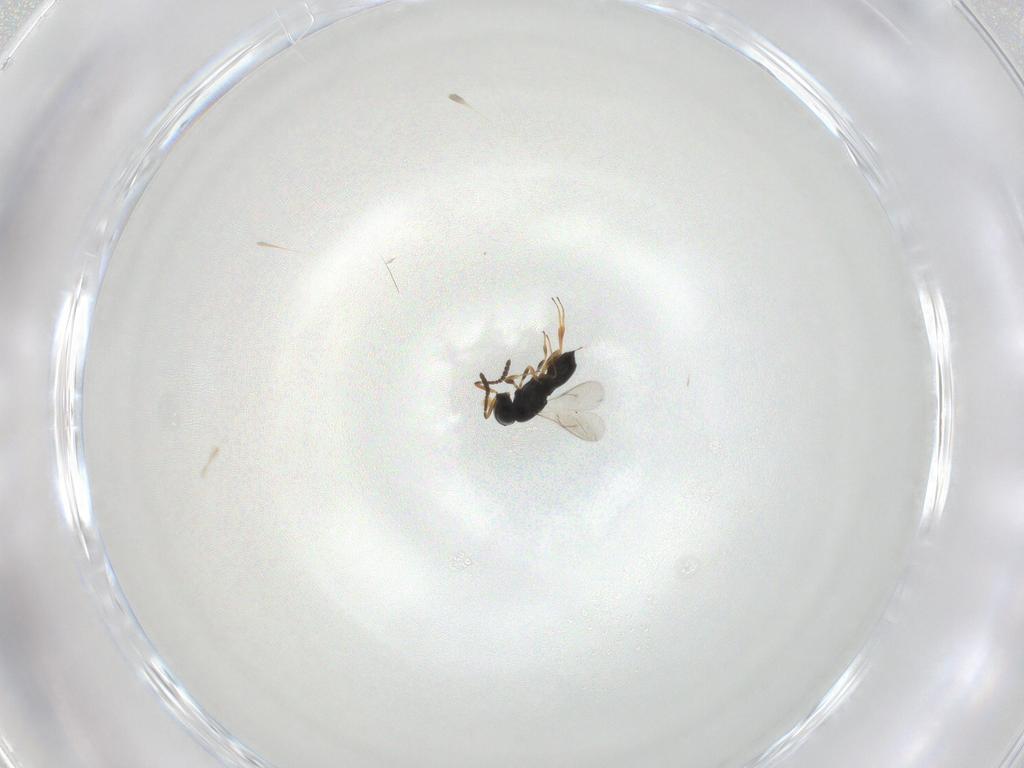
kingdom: Animalia
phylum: Arthropoda
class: Insecta
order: Hymenoptera
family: Scelionidae
